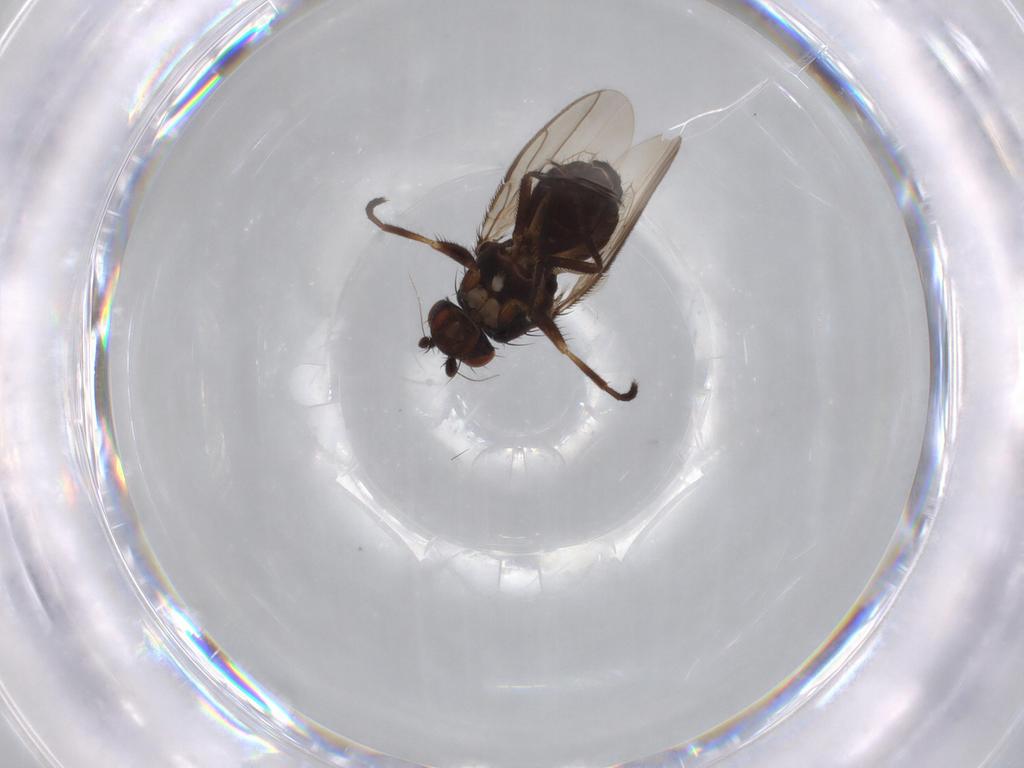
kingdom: Animalia
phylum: Arthropoda
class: Insecta
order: Diptera
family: Sphaeroceridae
